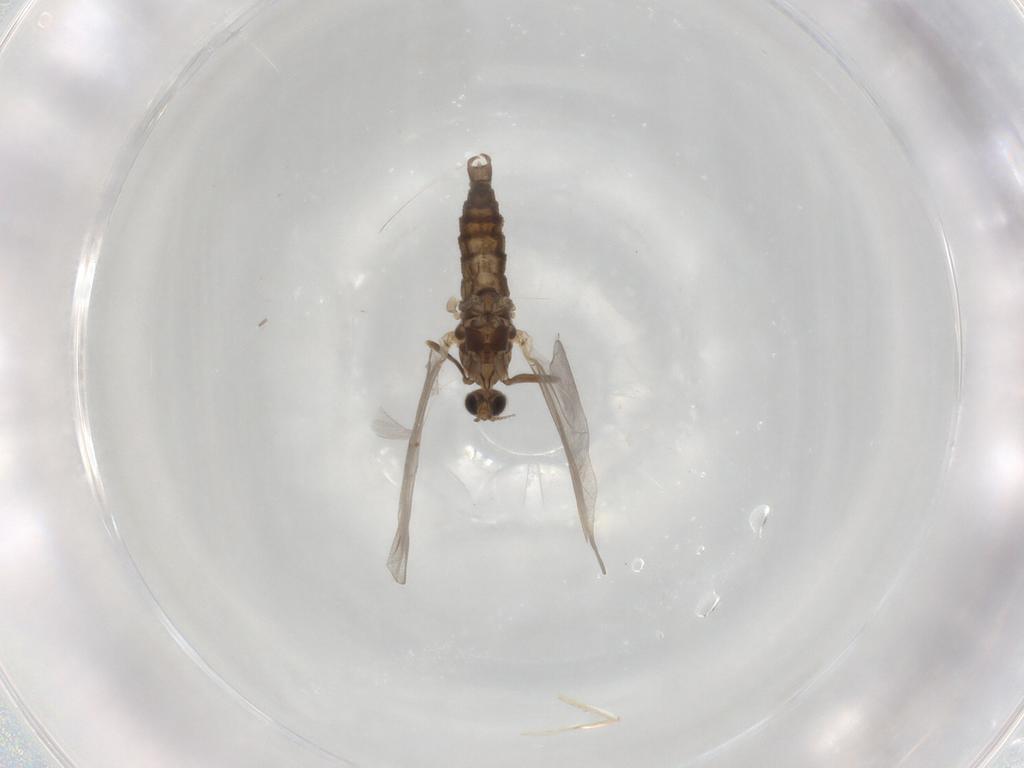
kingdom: Animalia
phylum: Arthropoda
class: Insecta
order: Diptera
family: Cecidomyiidae
